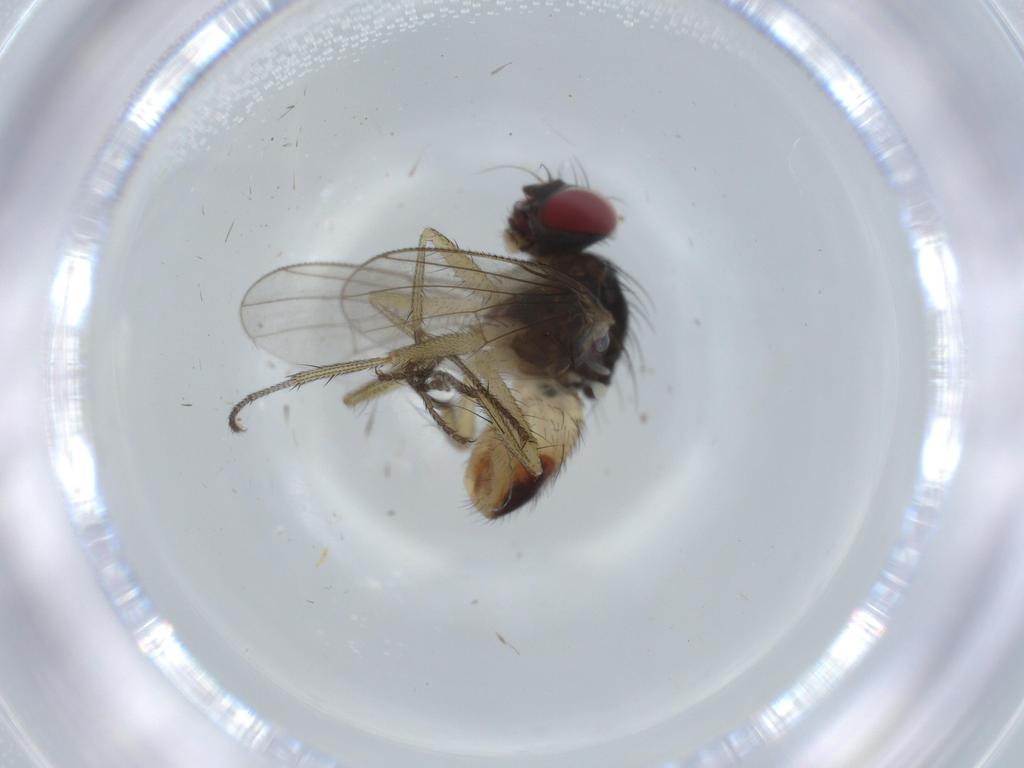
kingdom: Animalia
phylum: Arthropoda
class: Insecta
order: Diptera
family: Muscidae
